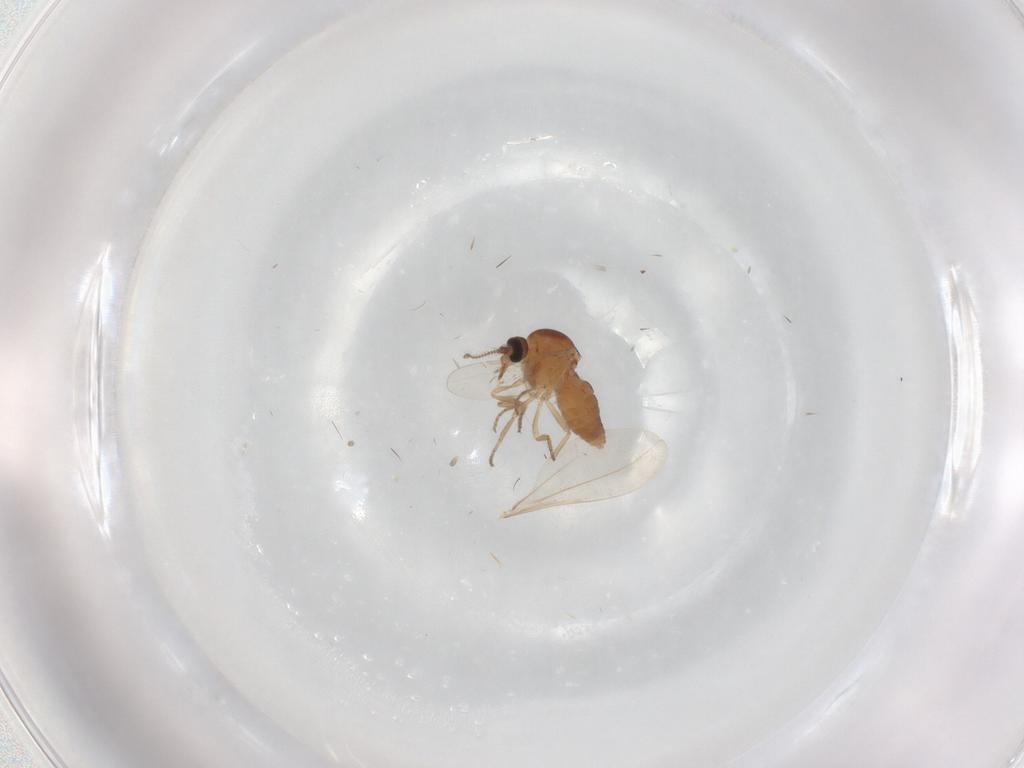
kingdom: Animalia
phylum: Arthropoda
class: Insecta
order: Diptera
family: Ceratopogonidae
